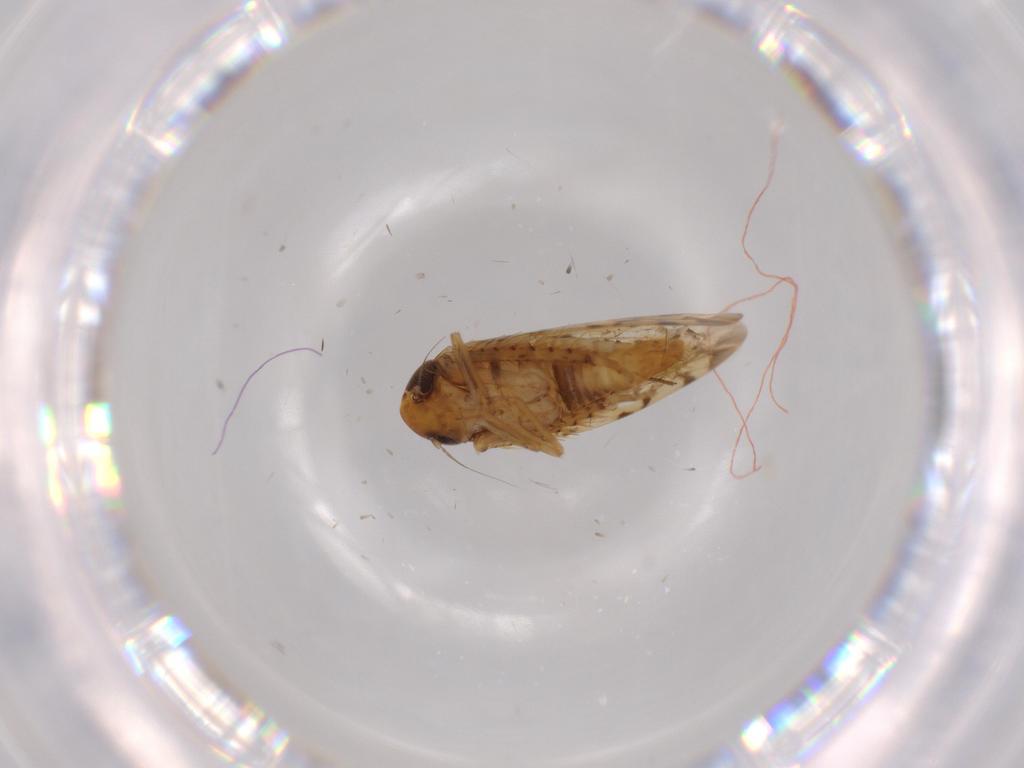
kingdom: Animalia
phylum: Arthropoda
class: Insecta
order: Hemiptera
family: Cicadellidae
